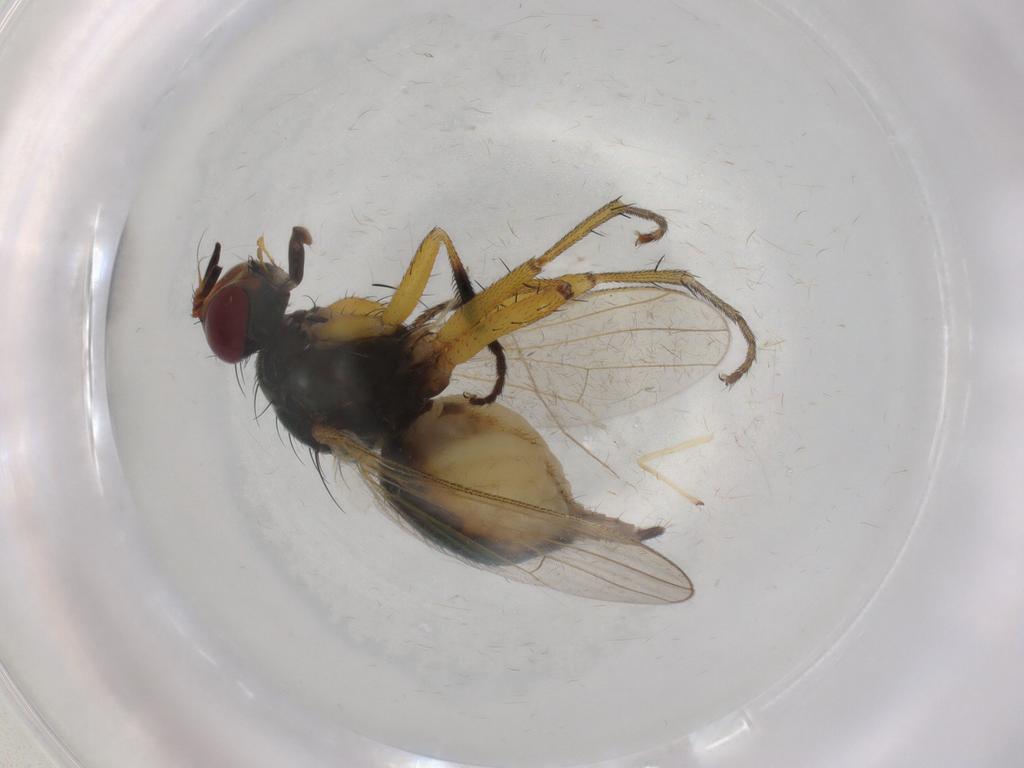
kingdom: Animalia
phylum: Arthropoda
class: Insecta
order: Diptera
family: Muscidae
